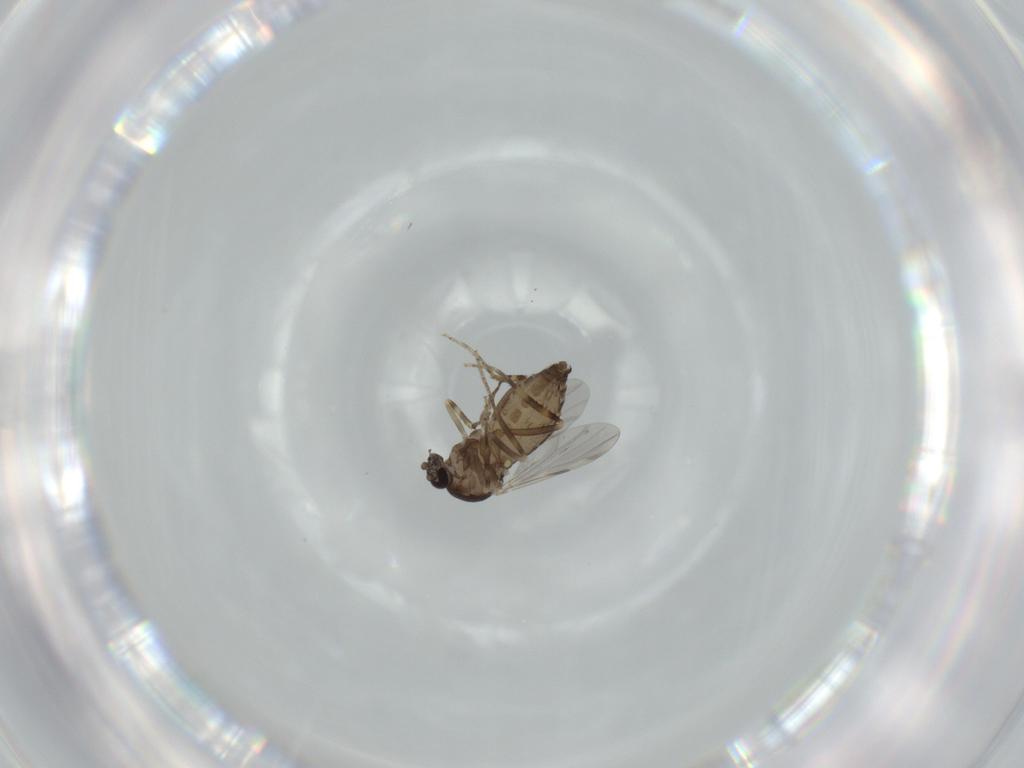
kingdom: Animalia
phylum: Arthropoda
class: Insecta
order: Diptera
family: Ceratopogonidae
